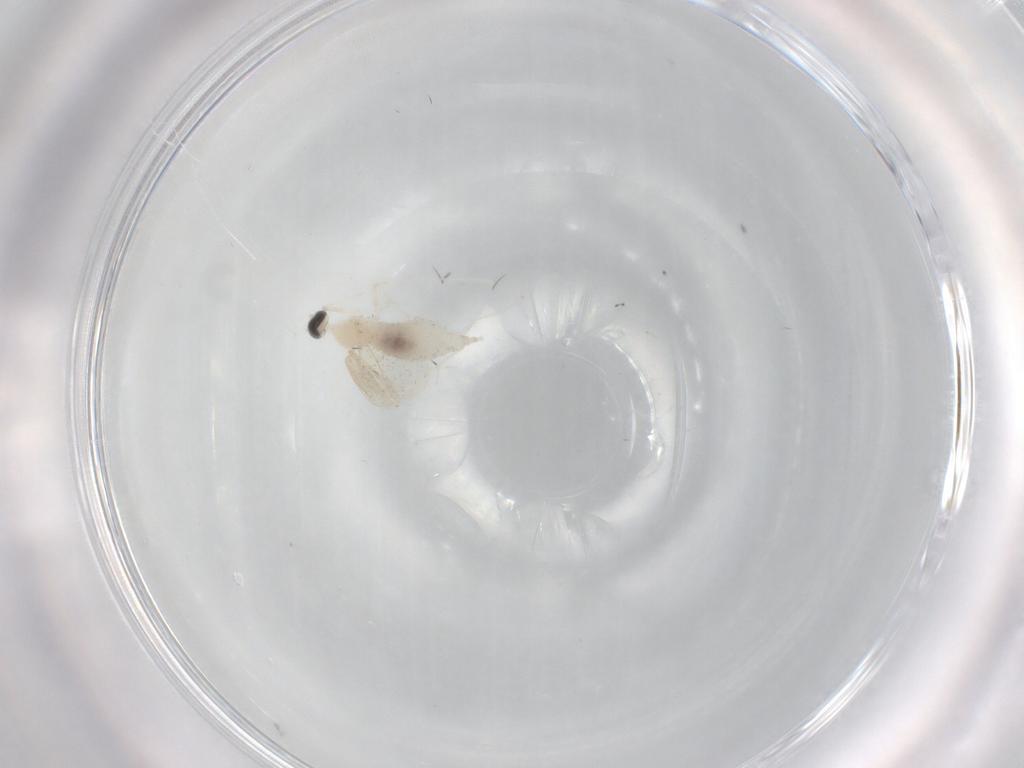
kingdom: Animalia
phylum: Arthropoda
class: Insecta
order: Diptera
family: Cecidomyiidae
